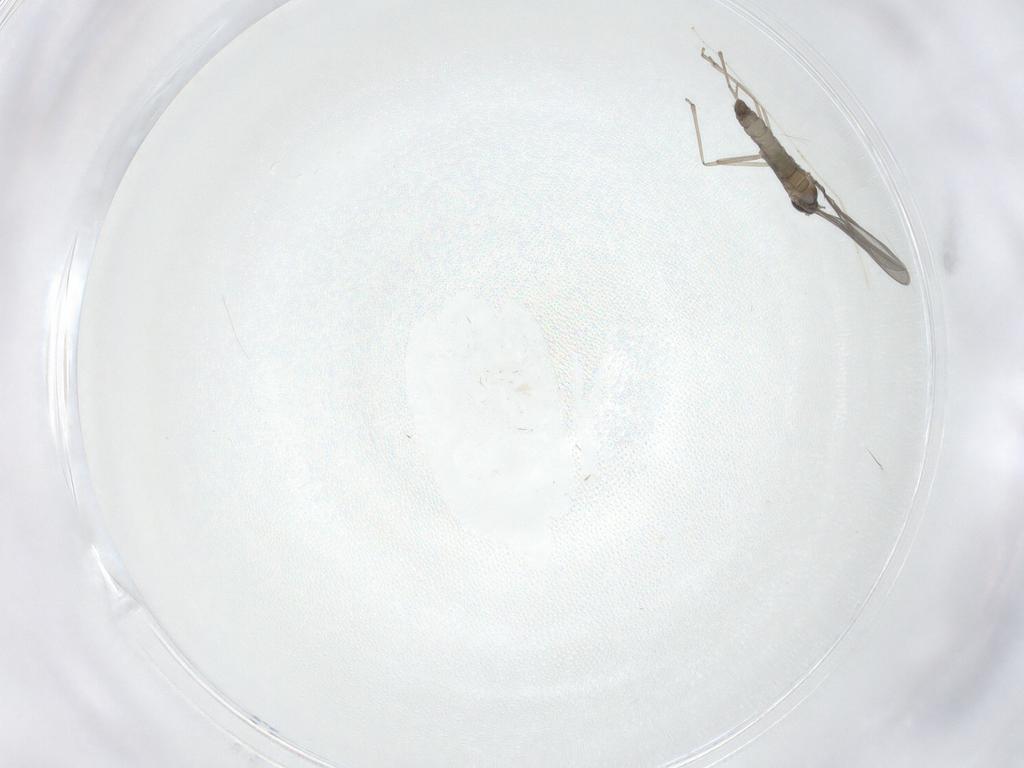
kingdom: Animalia
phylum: Arthropoda
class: Insecta
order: Diptera
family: Cecidomyiidae
